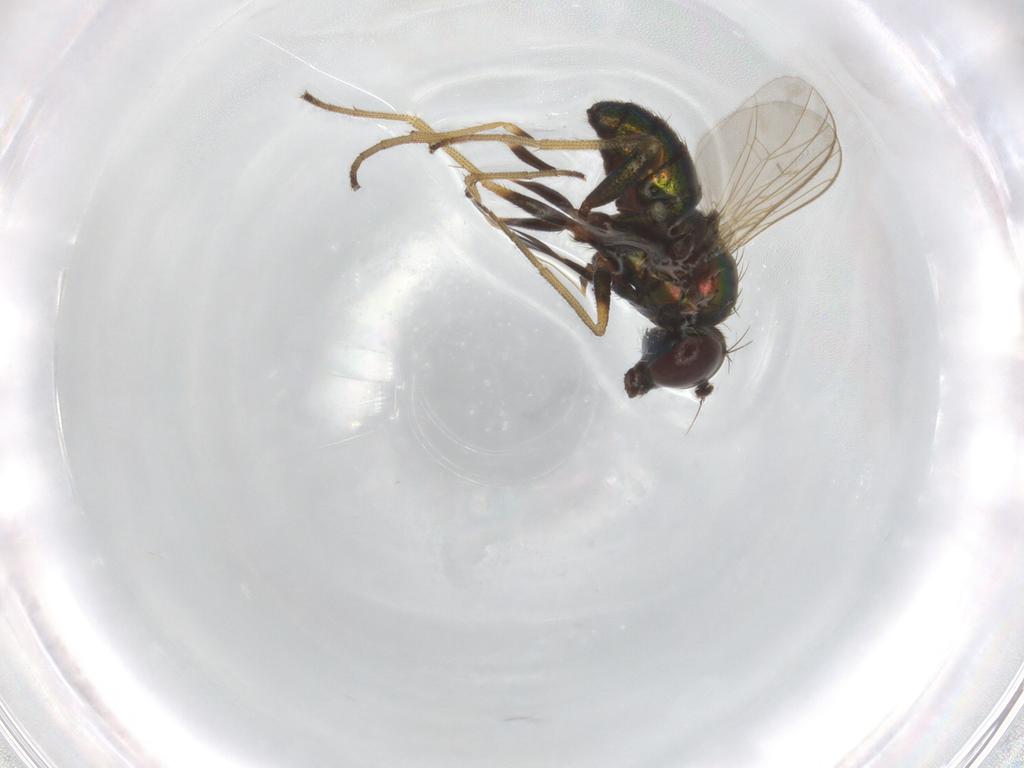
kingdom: Animalia
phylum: Arthropoda
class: Insecta
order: Diptera
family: Dolichopodidae
